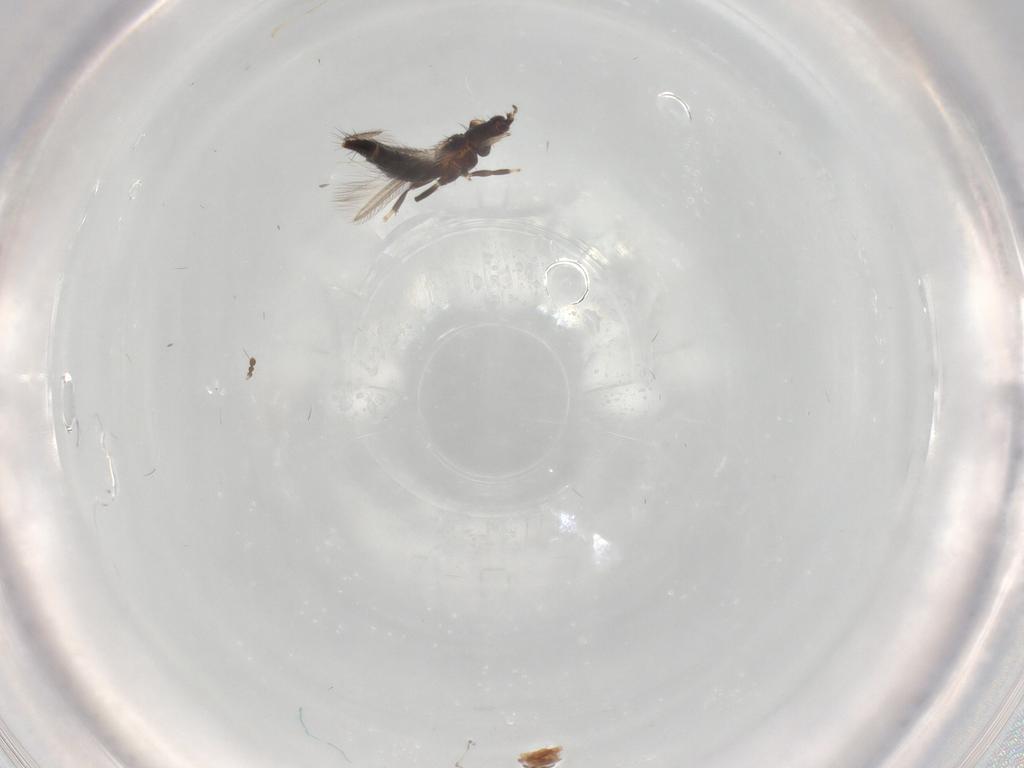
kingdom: Animalia
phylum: Arthropoda
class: Insecta
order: Thysanoptera
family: Thripidae
